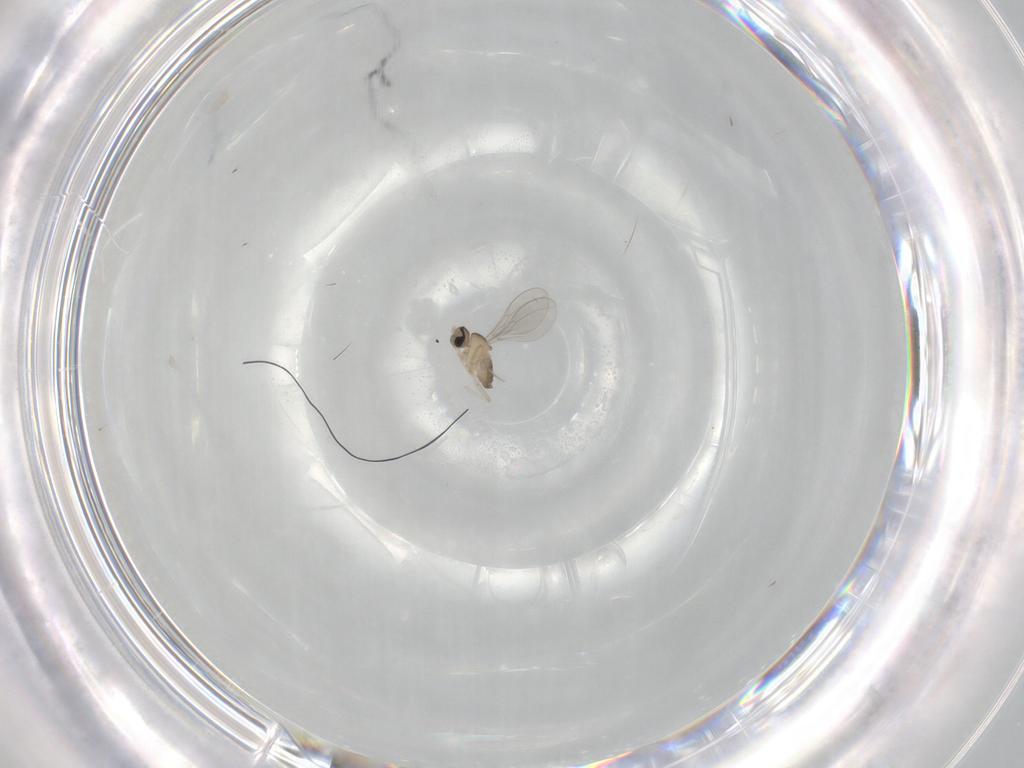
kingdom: Animalia
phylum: Arthropoda
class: Insecta
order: Diptera
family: Cecidomyiidae
